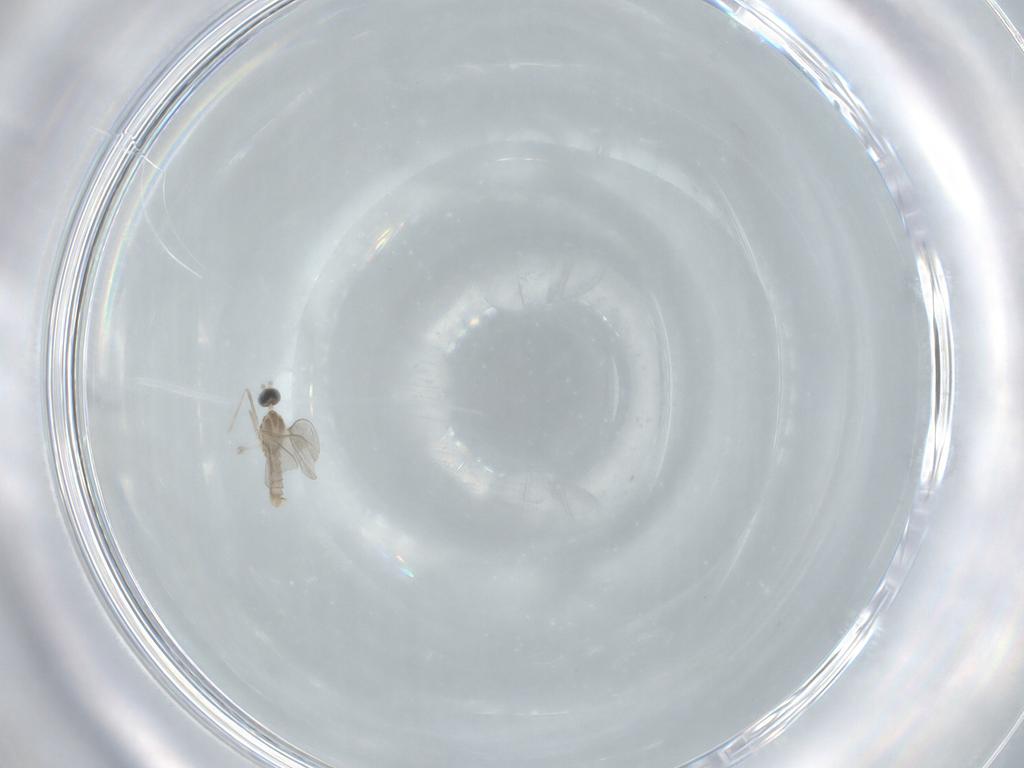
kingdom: Animalia
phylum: Arthropoda
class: Insecta
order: Diptera
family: Cecidomyiidae
